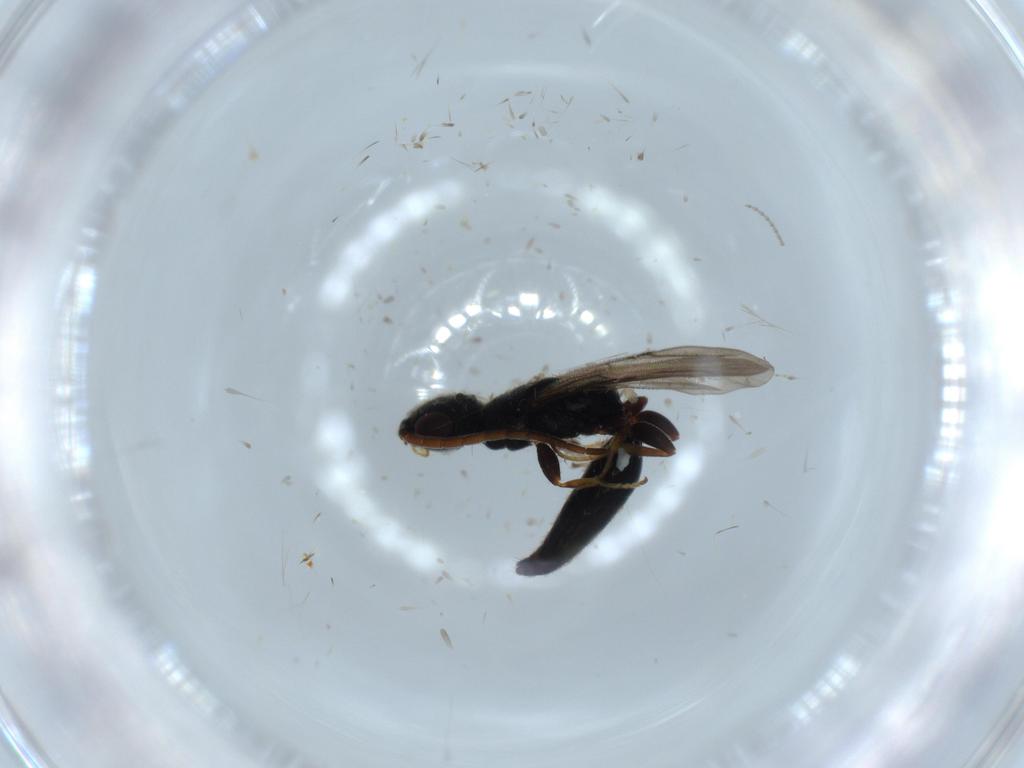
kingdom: Animalia
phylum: Arthropoda
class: Insecta
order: Hymenoptera
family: Bethylidae
